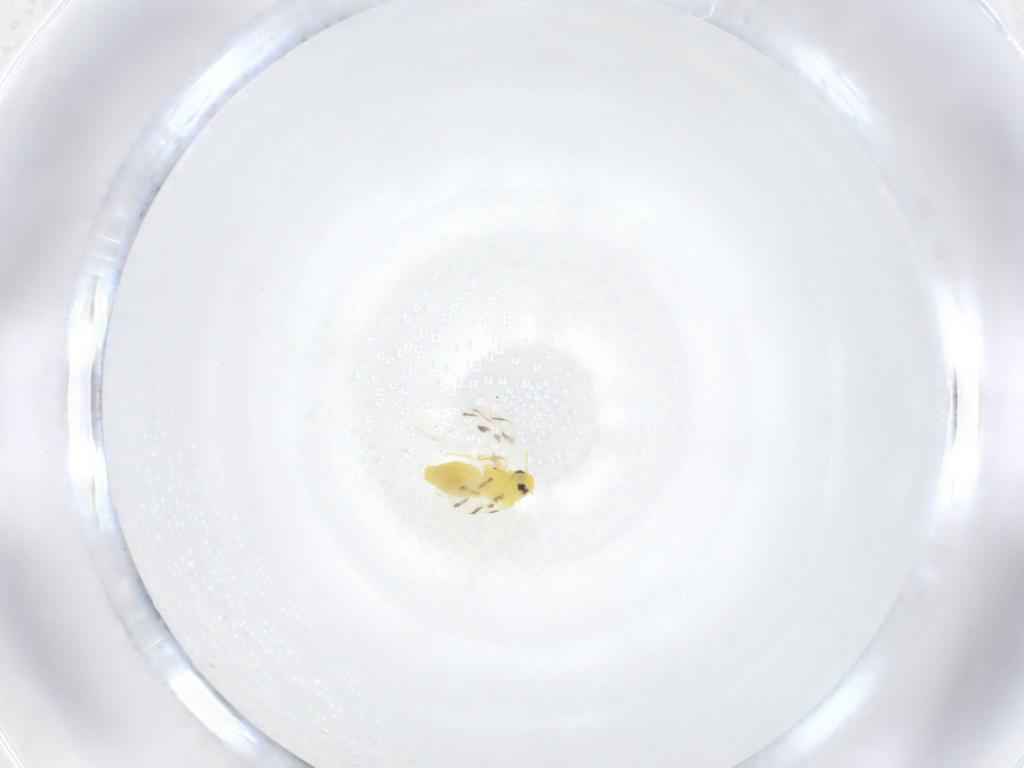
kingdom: Animalia
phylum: Arthropoda
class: Insecta
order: Hemiptera
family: Aleyrodidae
